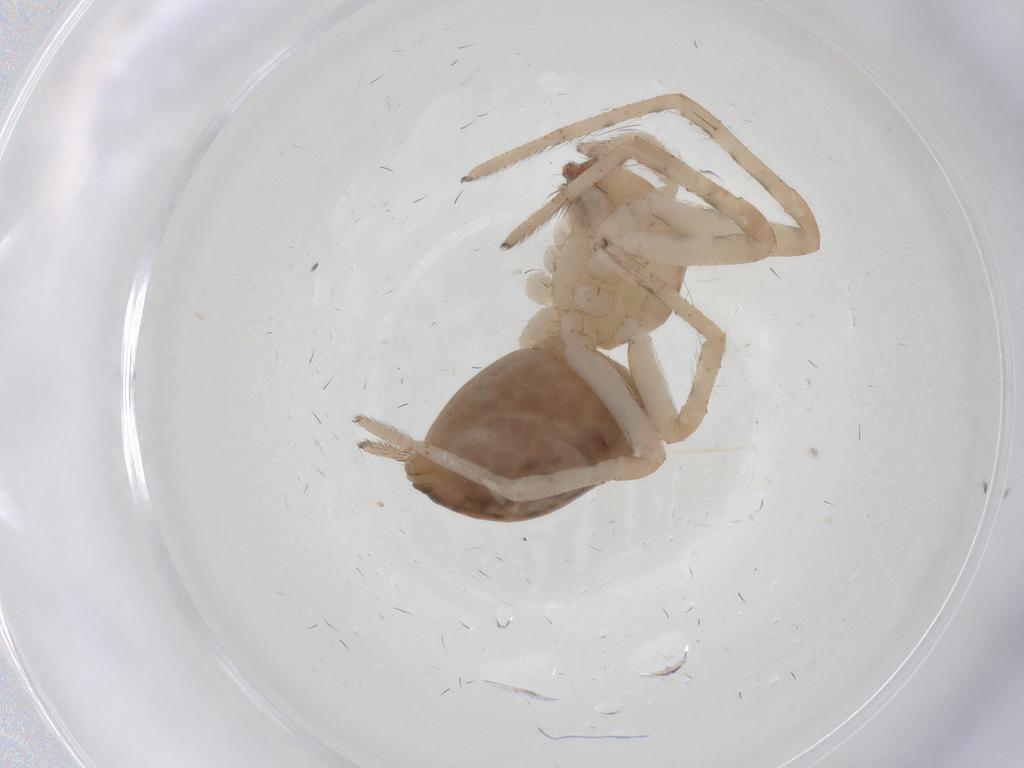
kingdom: Animalia
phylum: Arthropoda
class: Arachnida
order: Araneae
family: Dictynidae
